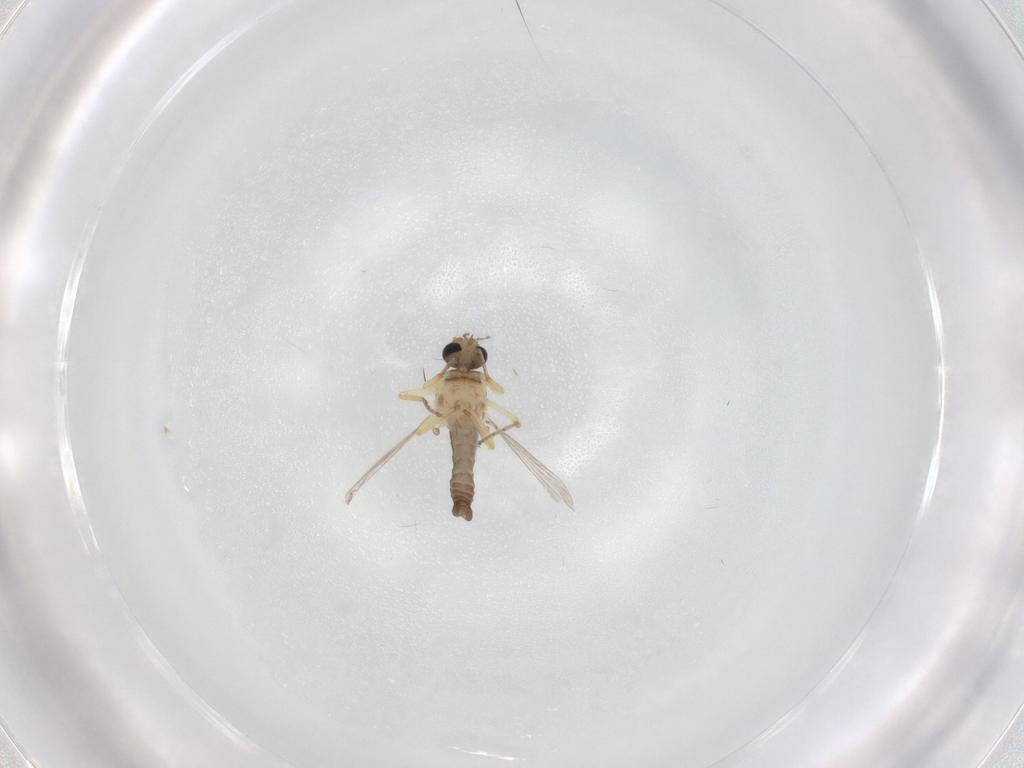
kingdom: Animalia
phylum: Arthropoda
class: Insecta
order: Diptera
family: Ceratopogonidae
